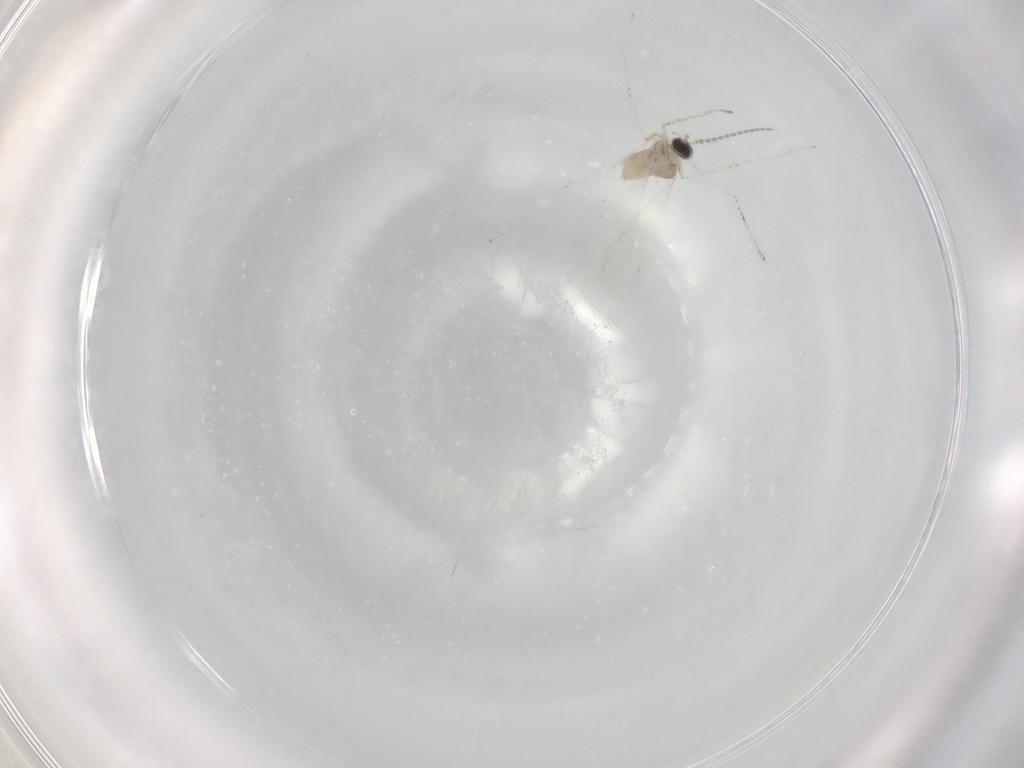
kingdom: Animalia
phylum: Arthropoda
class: Insecta
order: Diptera
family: Cecidomyiidae
